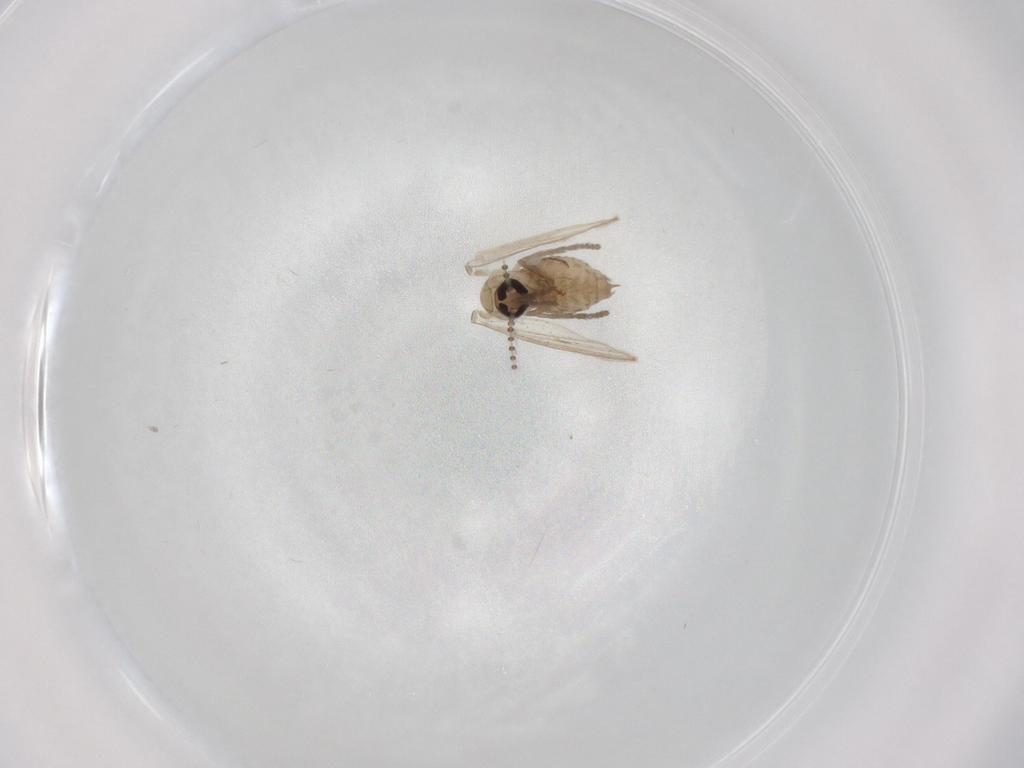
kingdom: Animalia
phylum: Arthropoda
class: Insecta
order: Diptera
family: Psychodidae
